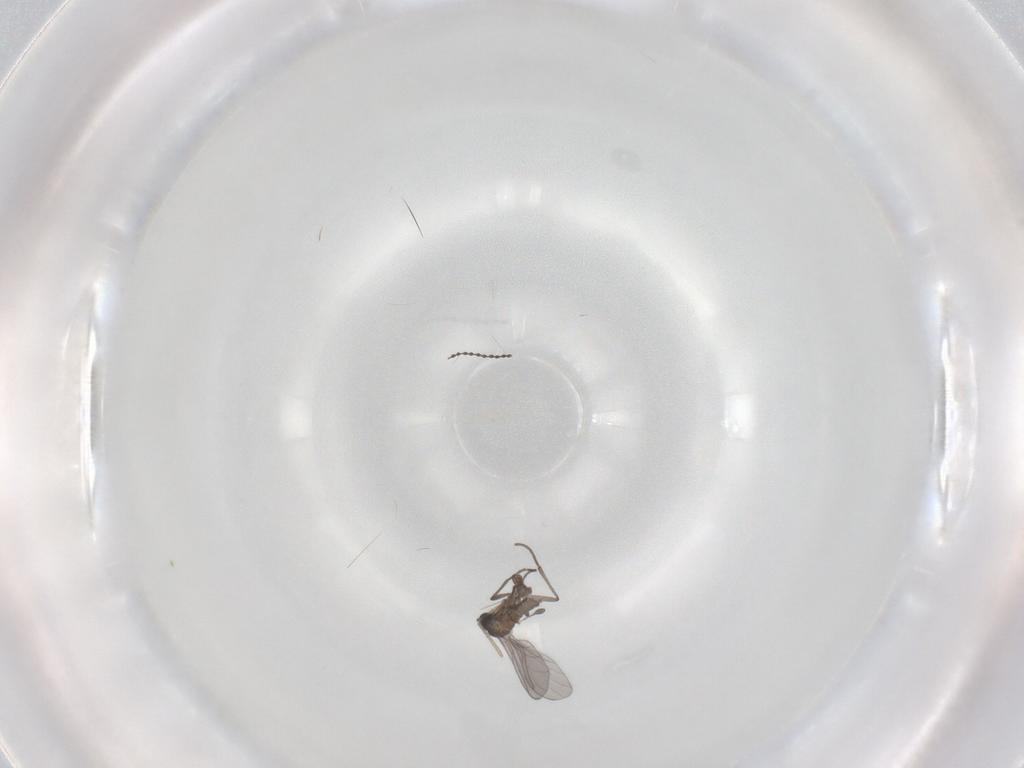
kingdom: Animalia
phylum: Arthropoda
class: Insecta
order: Diptera
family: Sciaridae
